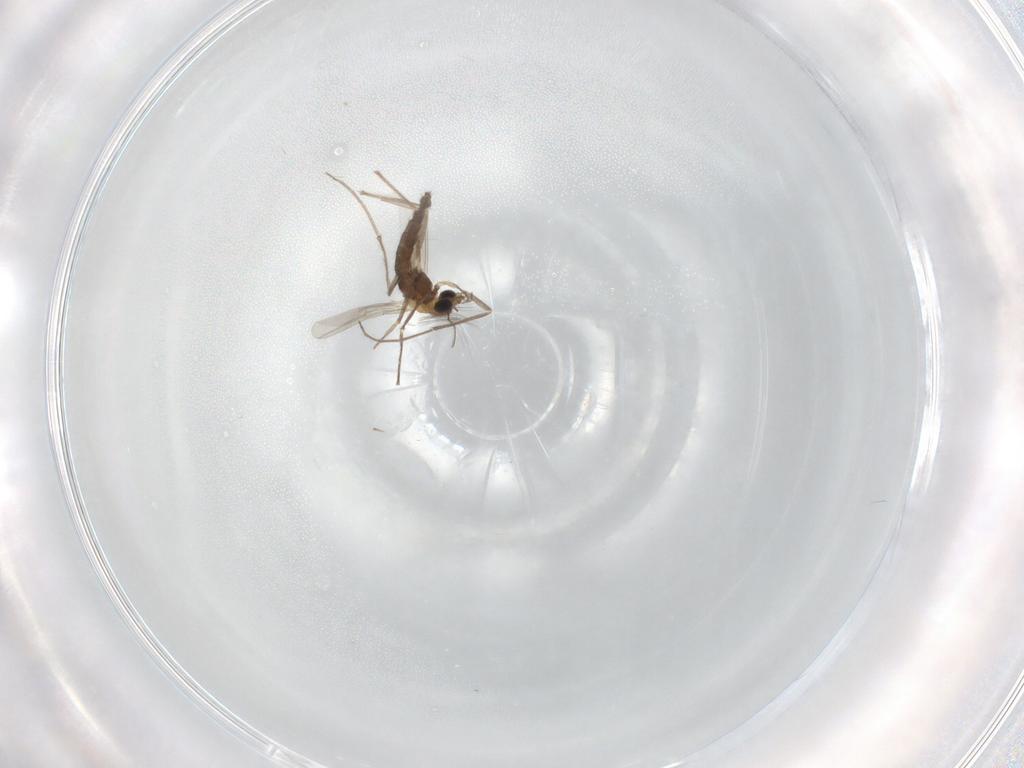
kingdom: Animalia
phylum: Arthropoda
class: Insecta
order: Diptera
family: Chironomidae
